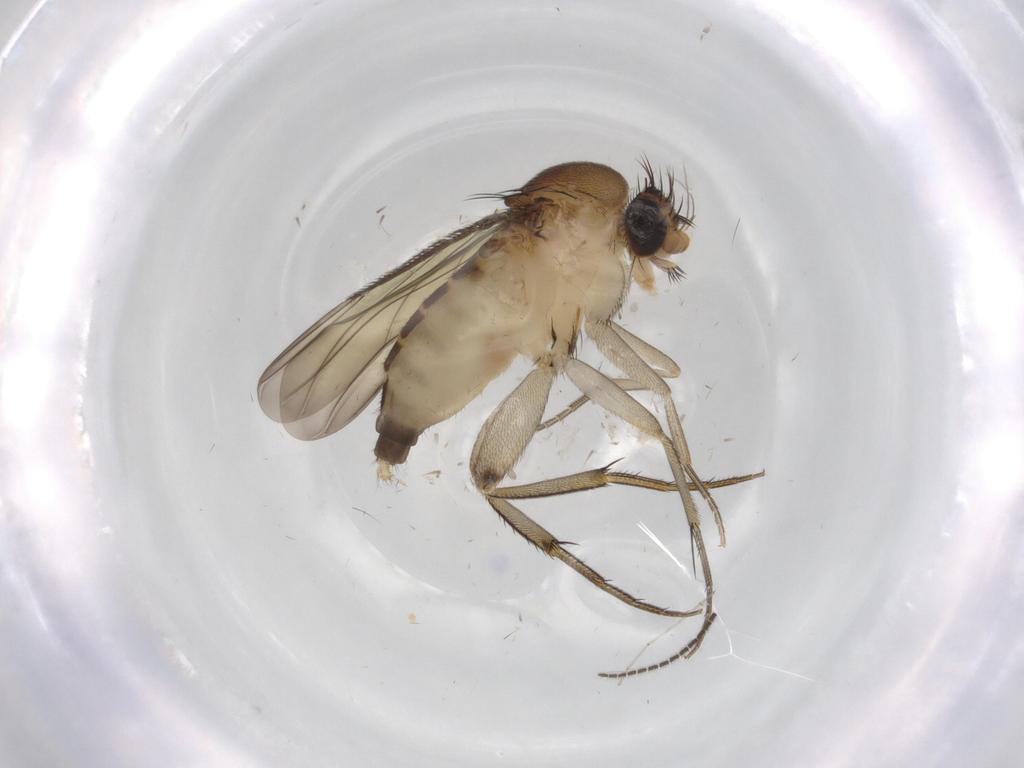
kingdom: Animalia
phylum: Arthropoda
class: Insecta
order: Diptera
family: Phoridae
